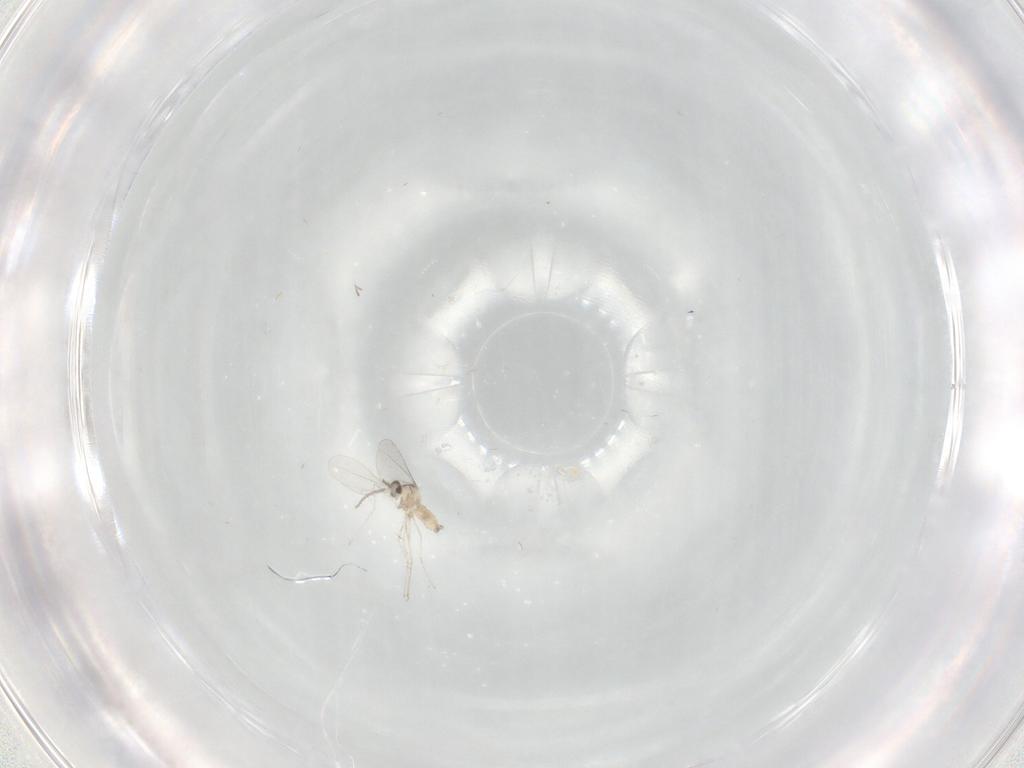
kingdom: Animalia
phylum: Arthropoda
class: Insecta
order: Diptera
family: Cecidomyiidae
